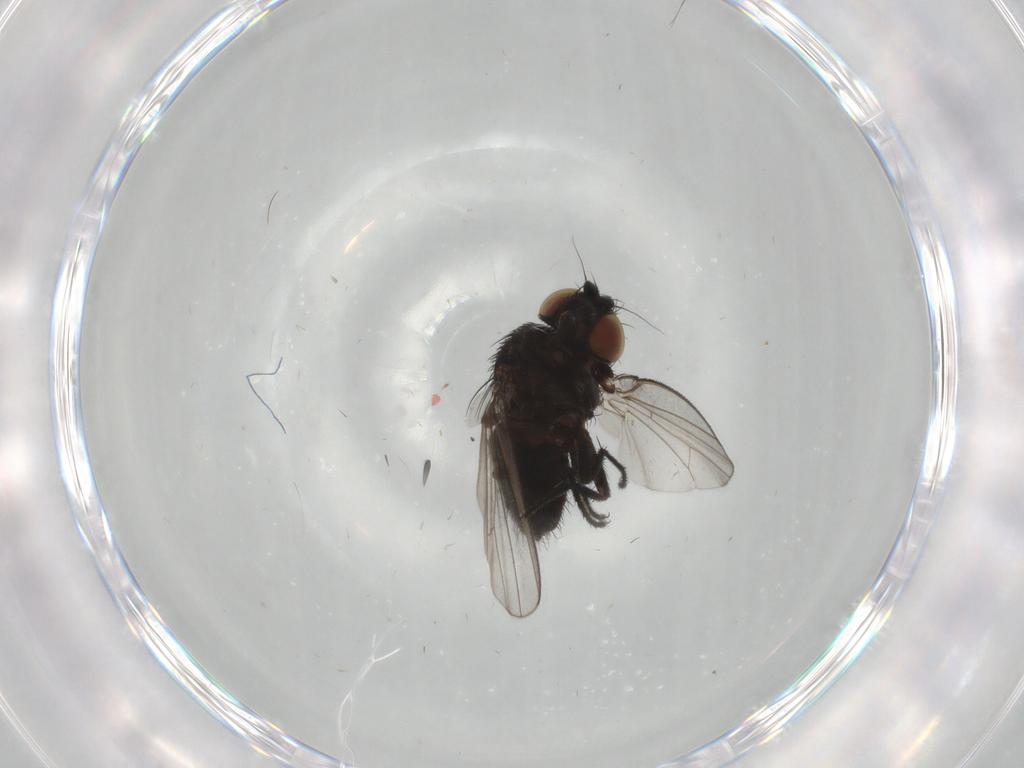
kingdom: Animalia
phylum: Arthropoda
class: Insecta
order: Diptera
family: Milichiidae
